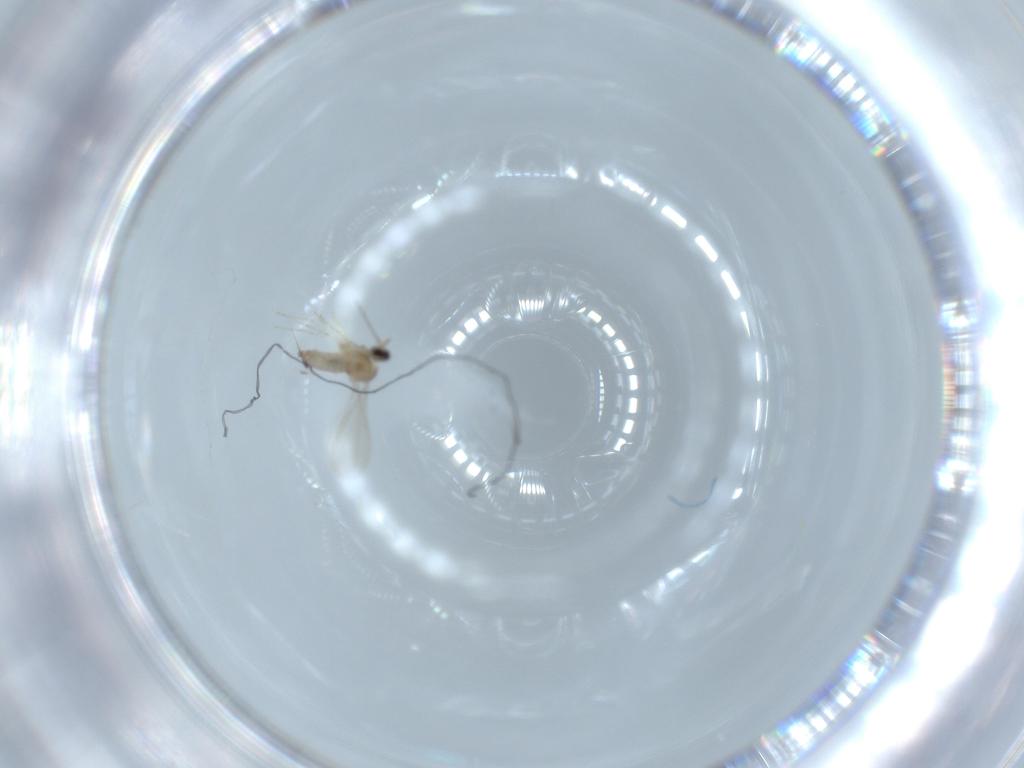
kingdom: Animalia
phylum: Arthropoda
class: Insecta
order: Diptera
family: Cecidomyiidae
